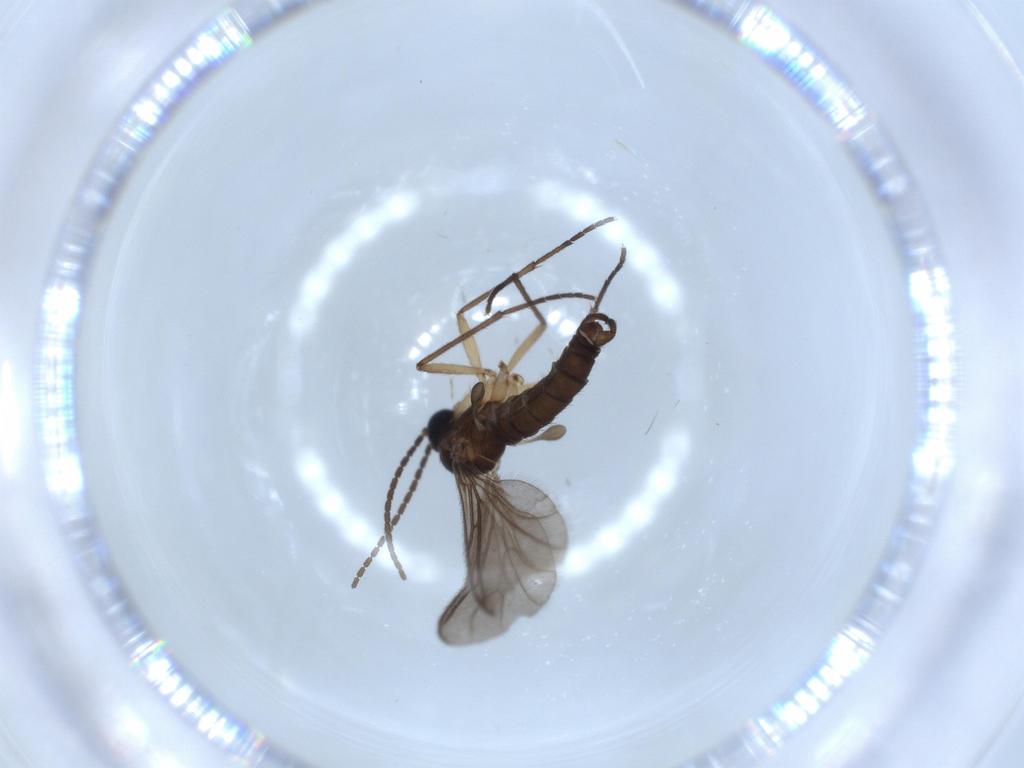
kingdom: Animalia
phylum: Arthropoda
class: Insecta
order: Diptera
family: Sciaridae
